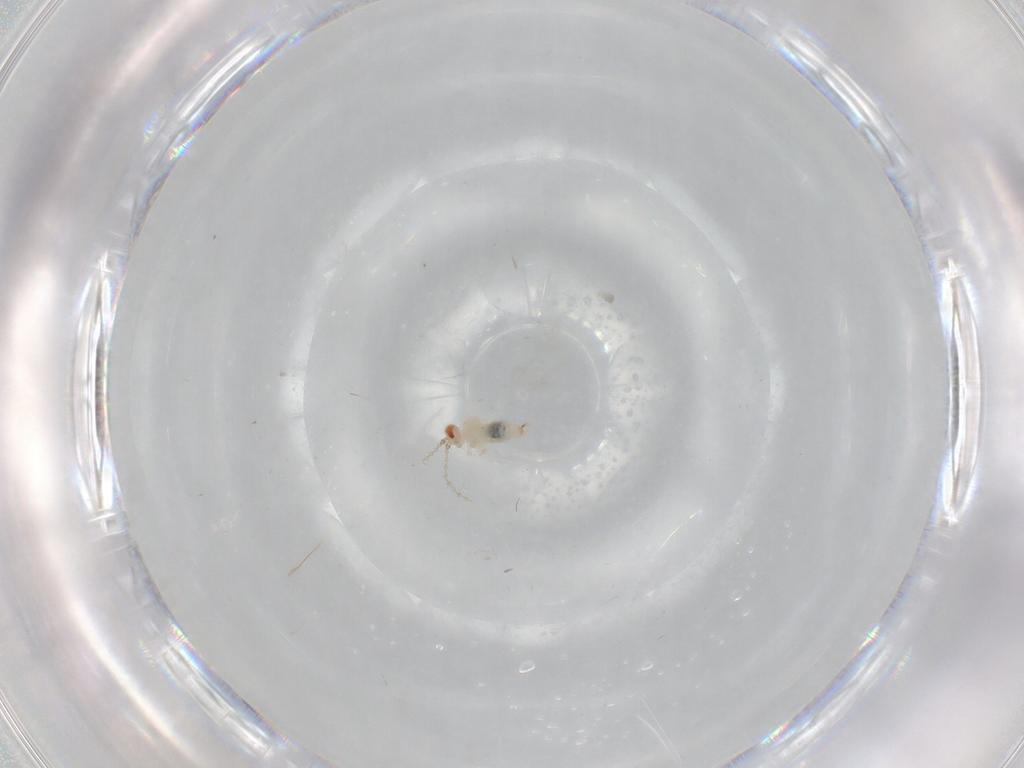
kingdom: Animalia
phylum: Arthropoda
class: Insecta
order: Diptera
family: Cecidomyiidae
